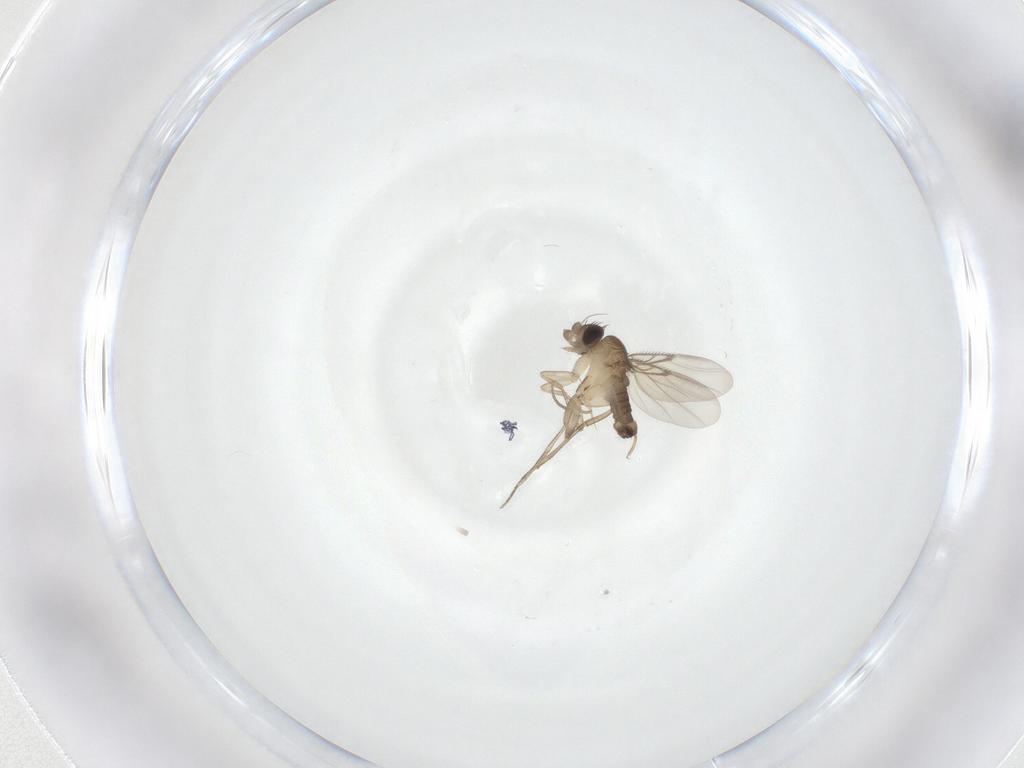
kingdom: Animalia
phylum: Arthropoda
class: Insecta
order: Diptera
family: Phoridae
